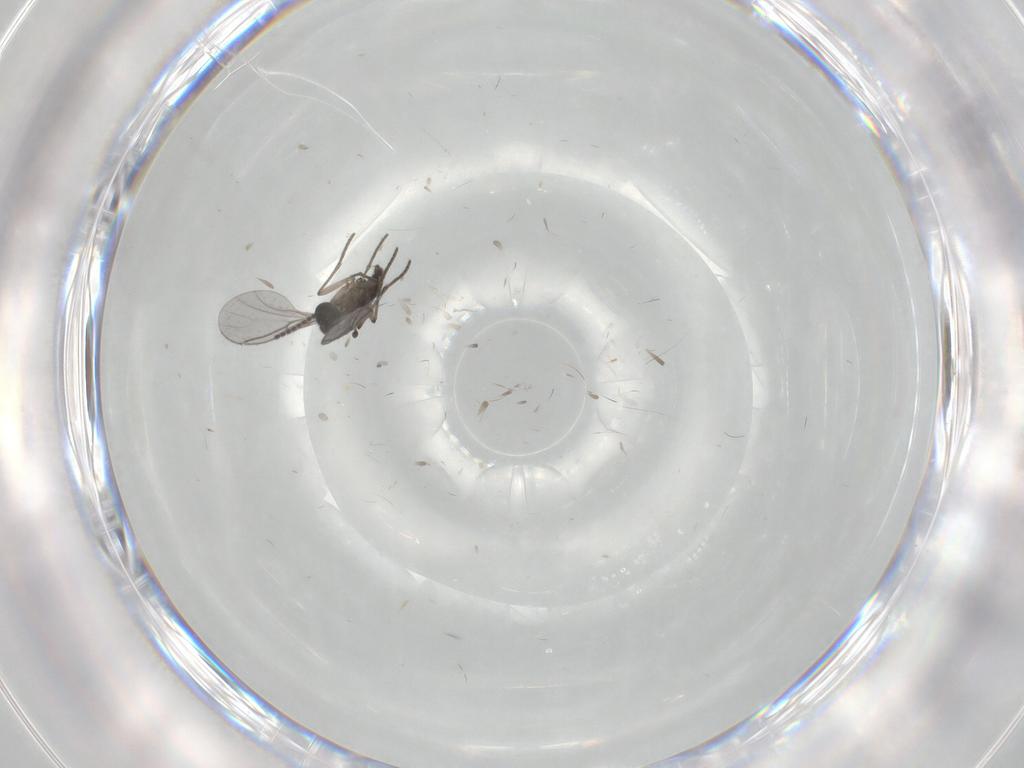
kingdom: Animalia
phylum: Arthropoda
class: Insecta
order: Diptera
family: Chironomidae
